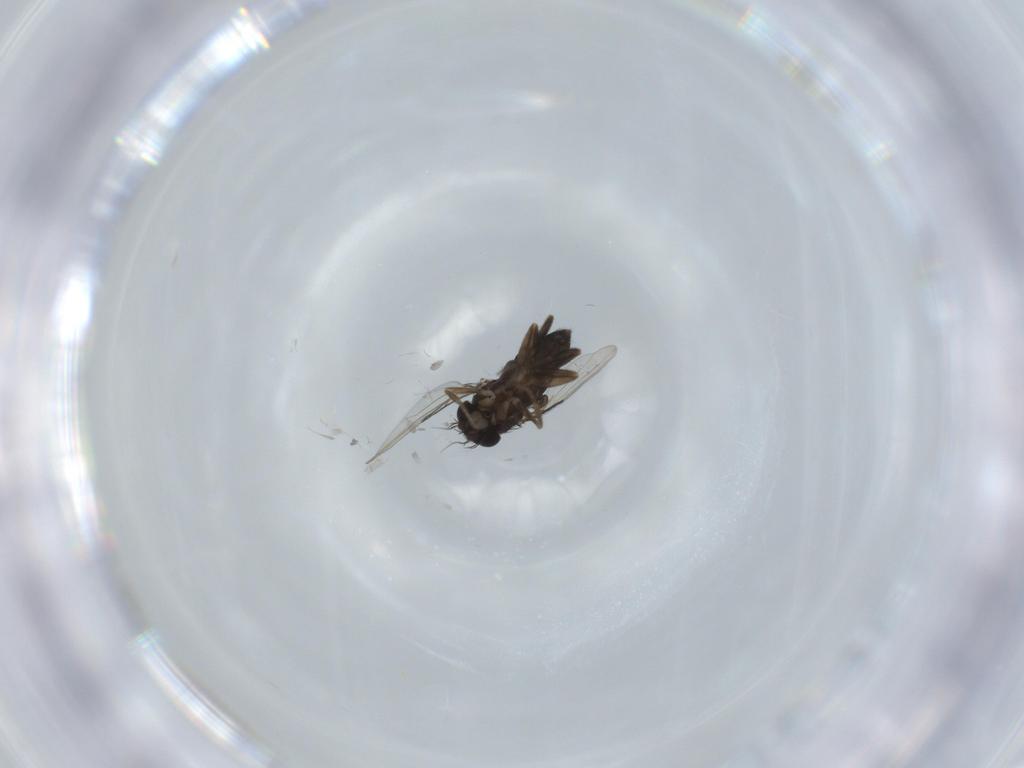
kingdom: Animalia
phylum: Arthropoda
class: Insecta
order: Diptera
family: Phoridae
